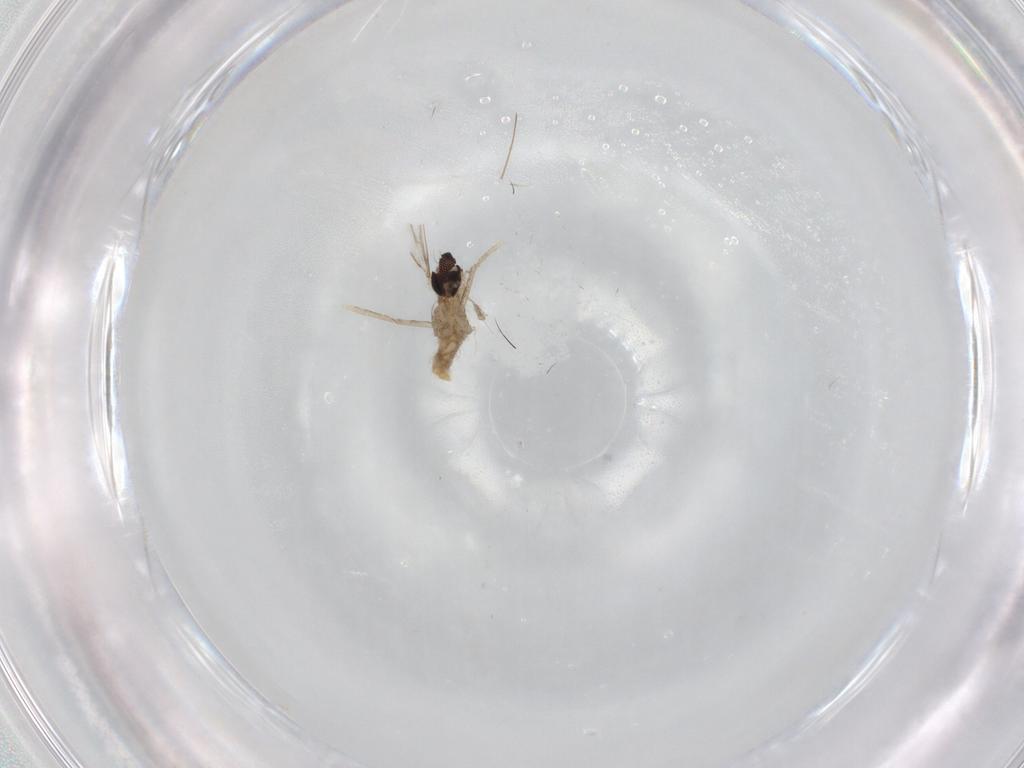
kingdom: Animalia
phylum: Arthropoda
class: Insecta
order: Diptera
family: Cecidomyiidae
